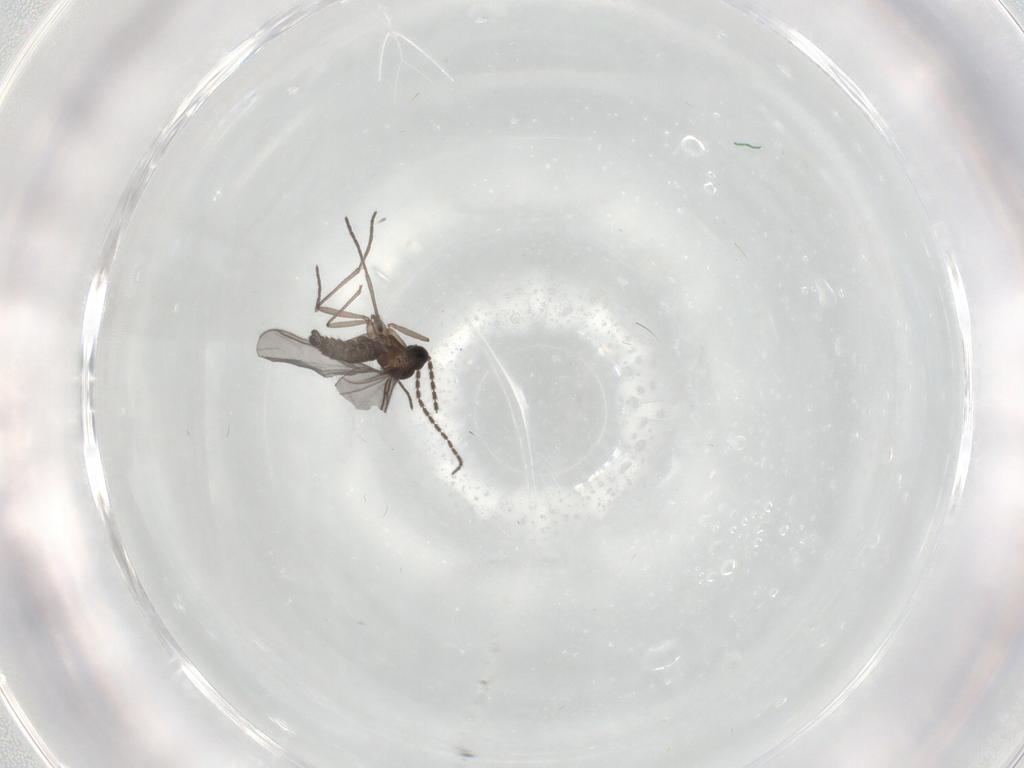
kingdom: Animalia
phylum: Arthropoda
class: Insecta
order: Diptera
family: Sciaridae
